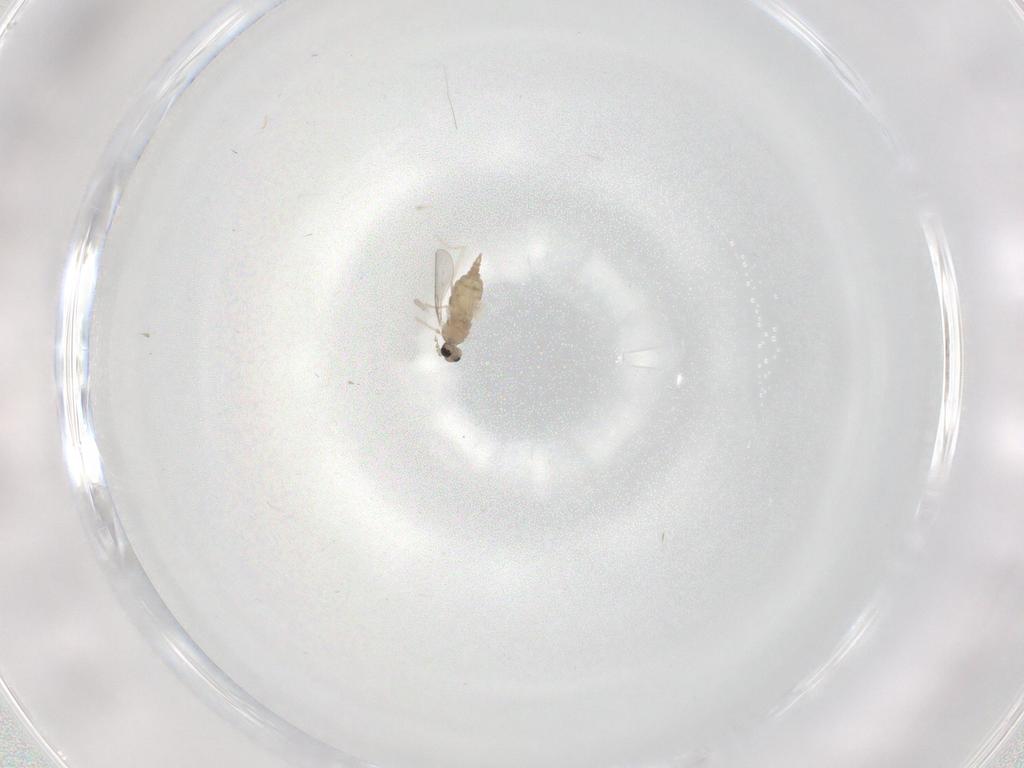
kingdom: Animalia
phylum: Arthropoda
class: Insecta
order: Diptera
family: Cecidomyiidae
